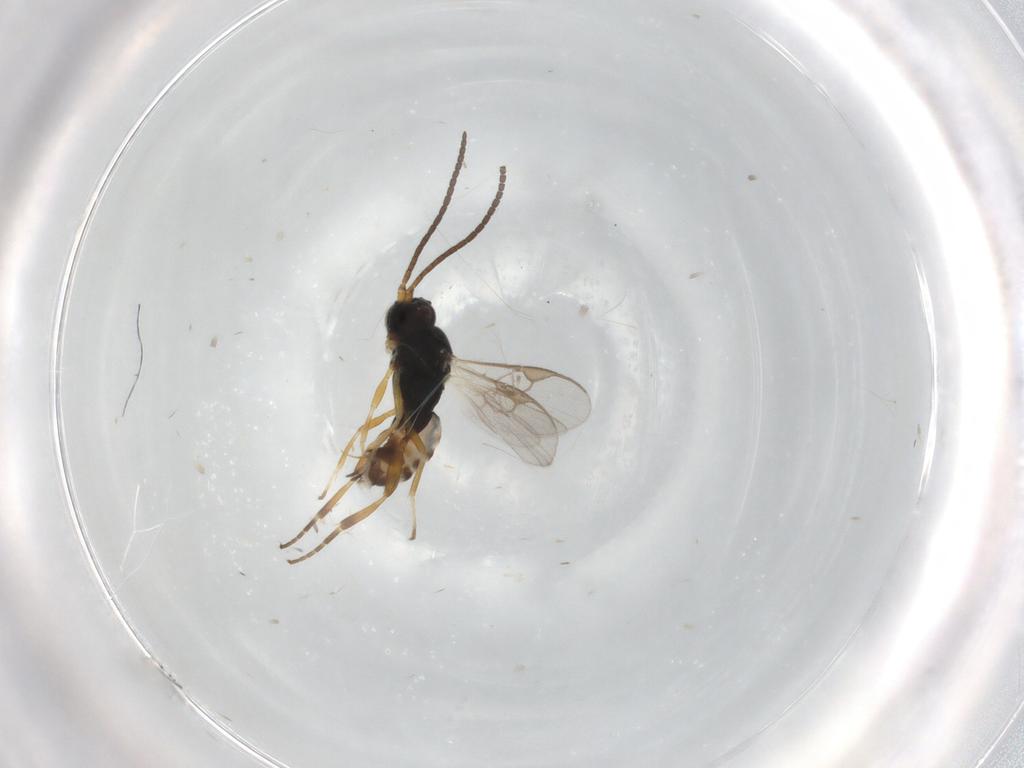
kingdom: Animalia
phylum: Arthropoda
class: Insecta
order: Hymenoptera
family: Braconidae
